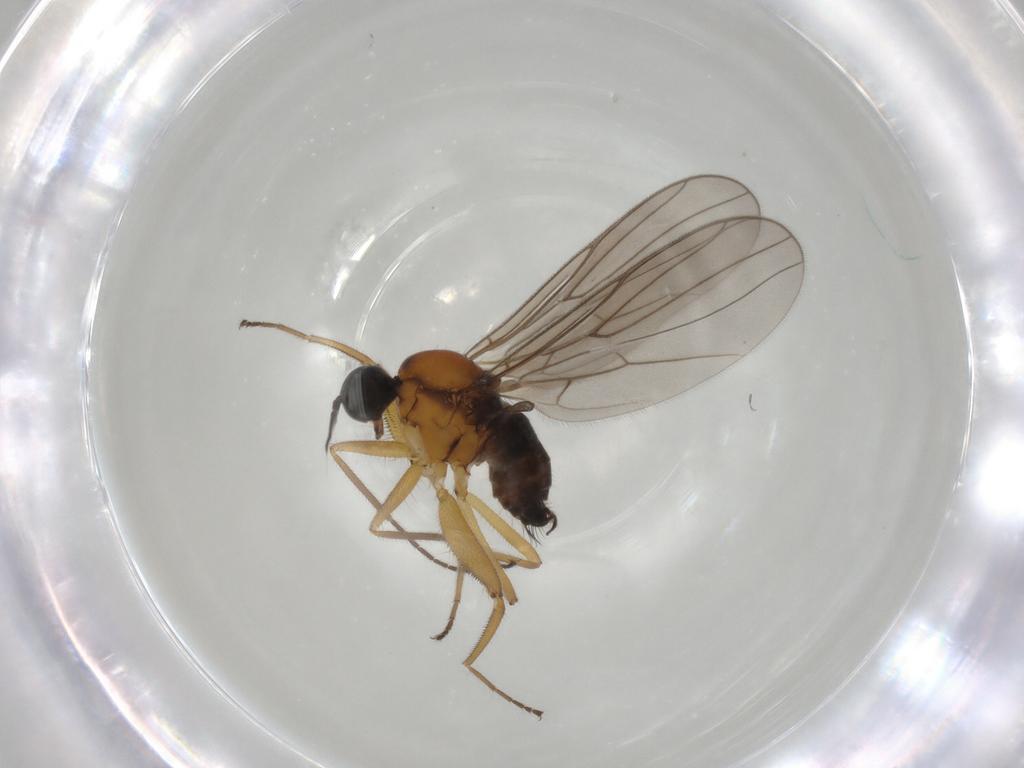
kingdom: Animalia
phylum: Arthropoda
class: Insecta
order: Diptera
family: Hybotidae
